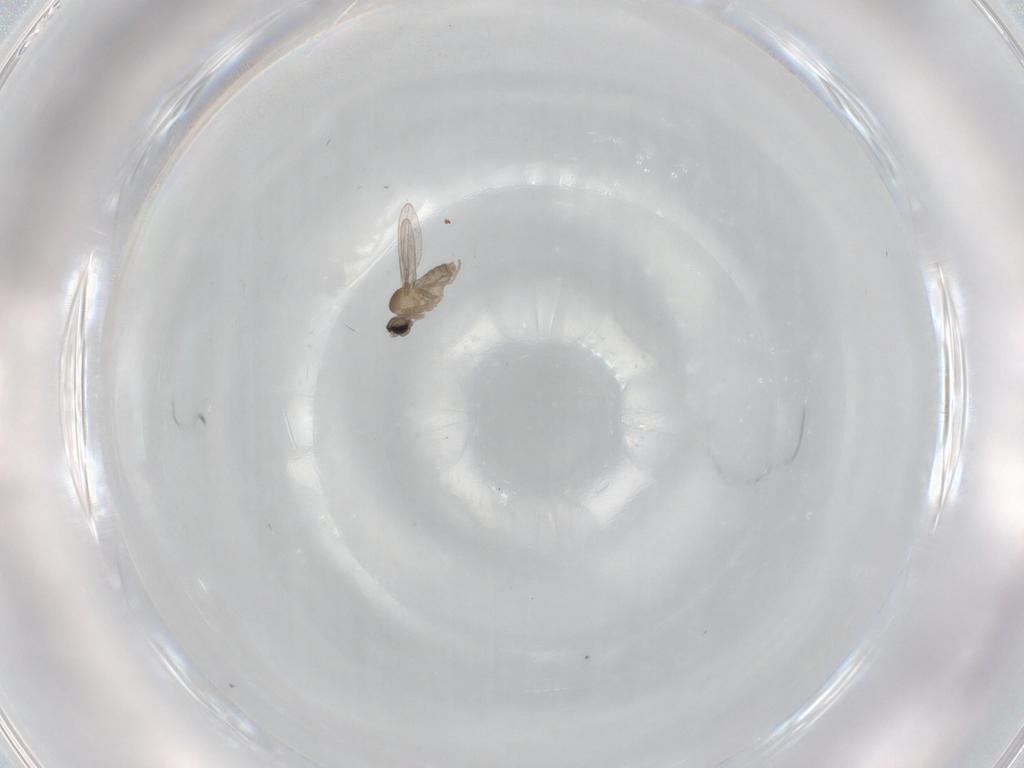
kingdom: Animalia
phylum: Arthropoda
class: Insecta
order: Diptera
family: Cecidomyiidae
